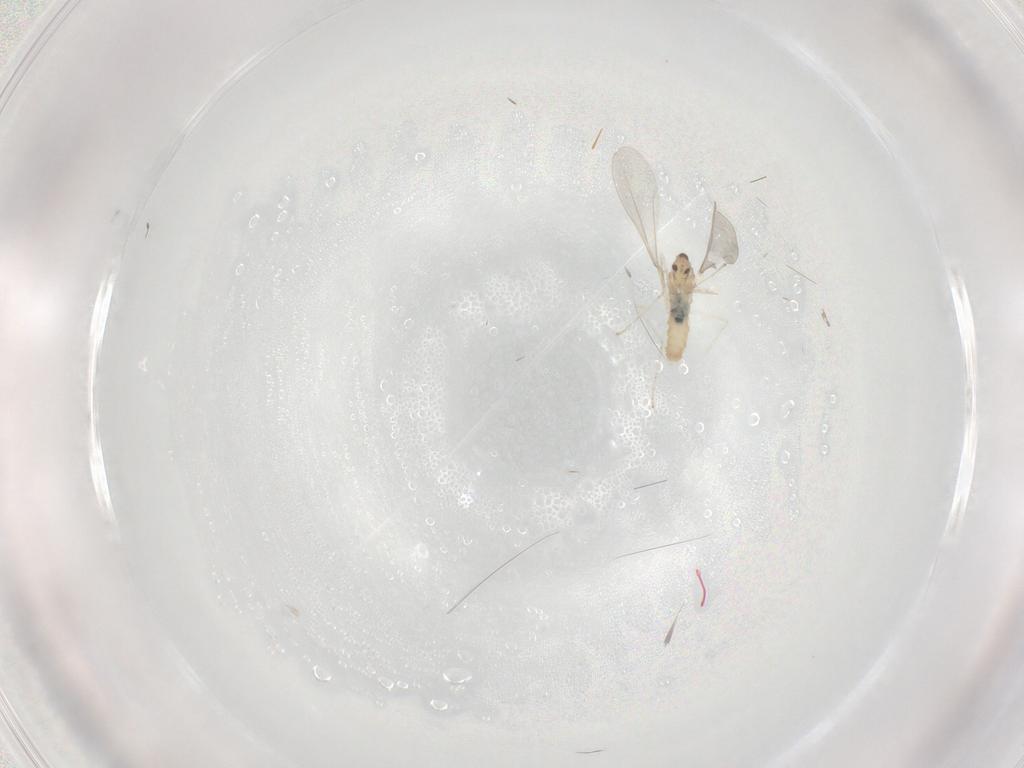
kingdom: Animalia
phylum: Arthropoda
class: Insecta
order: Diptera
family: Cecidomyiidae
